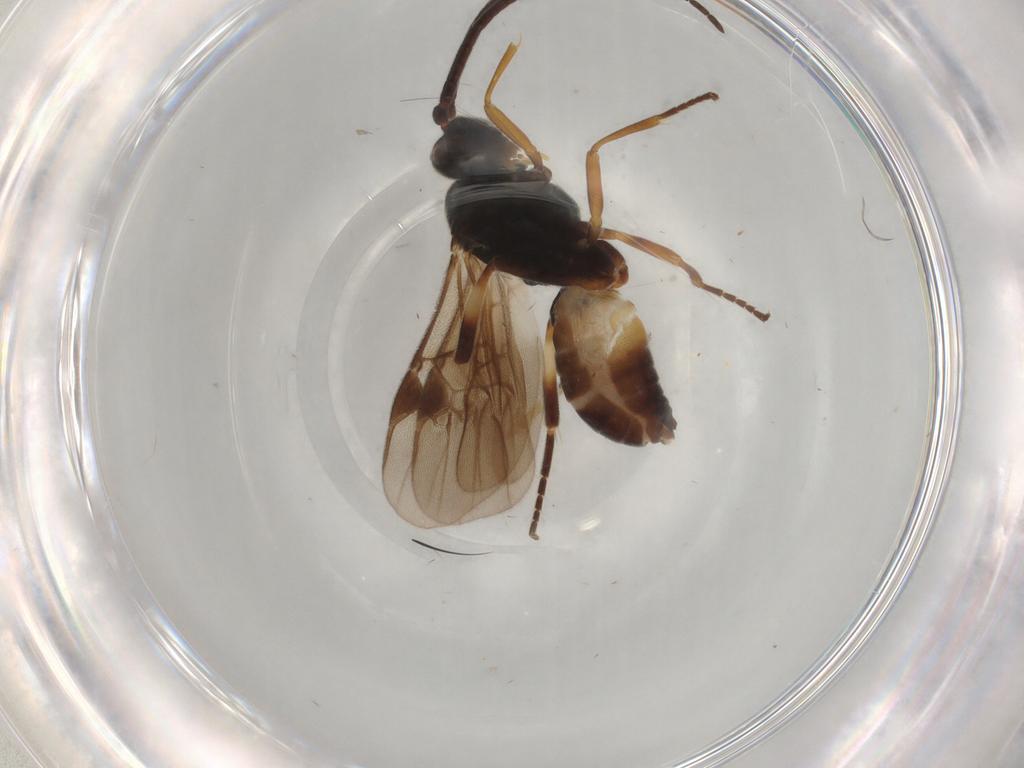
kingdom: Animalia
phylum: Arthropoda
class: Insecta
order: Hymenoptera
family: Braconidae
